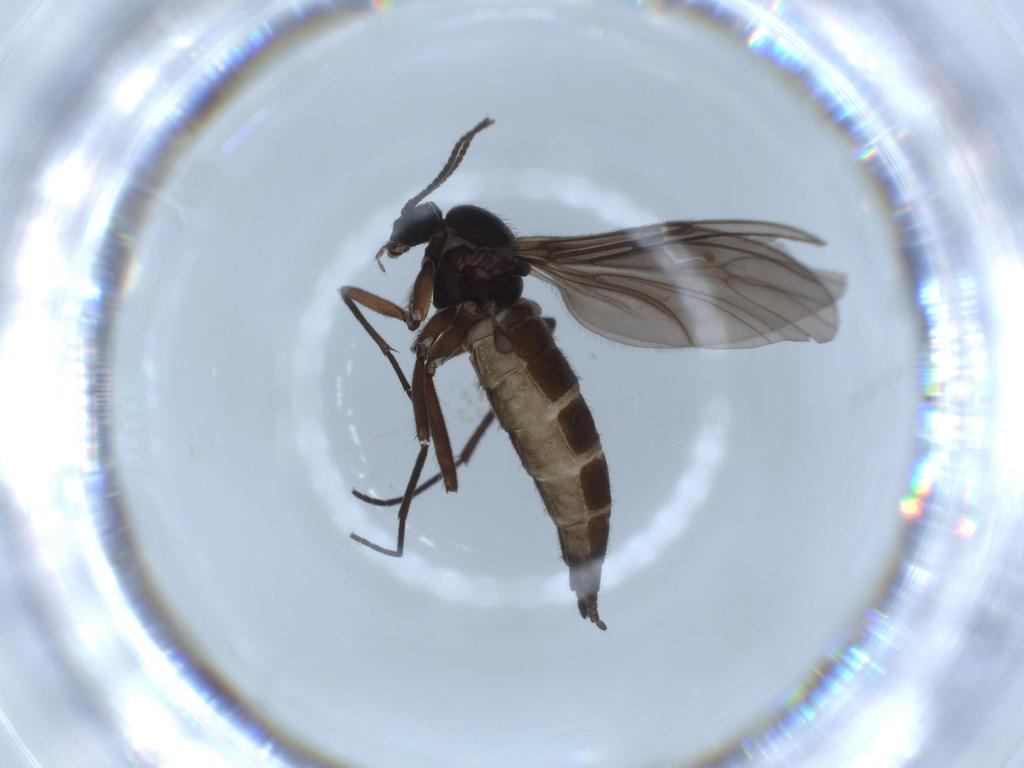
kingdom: Animalia
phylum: Arthropoda
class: Insecta
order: Diptera
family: Sciaridae
